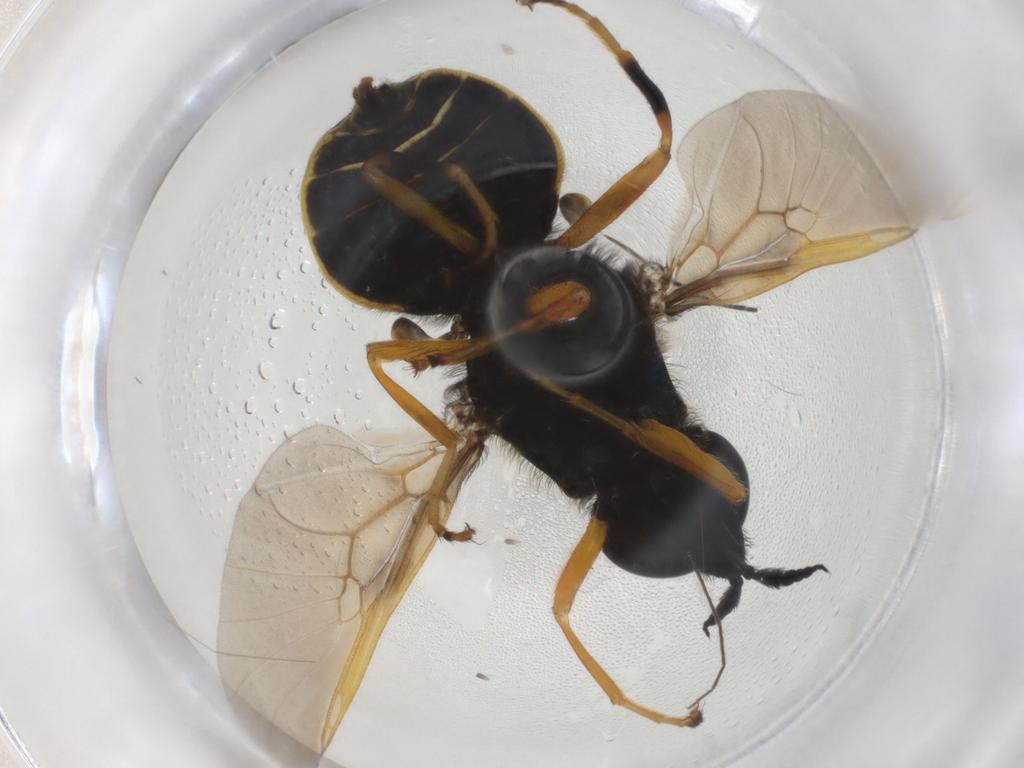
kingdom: Animalia
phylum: Arthropoda
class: Insecta
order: Diptera
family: Stratiomyidae
